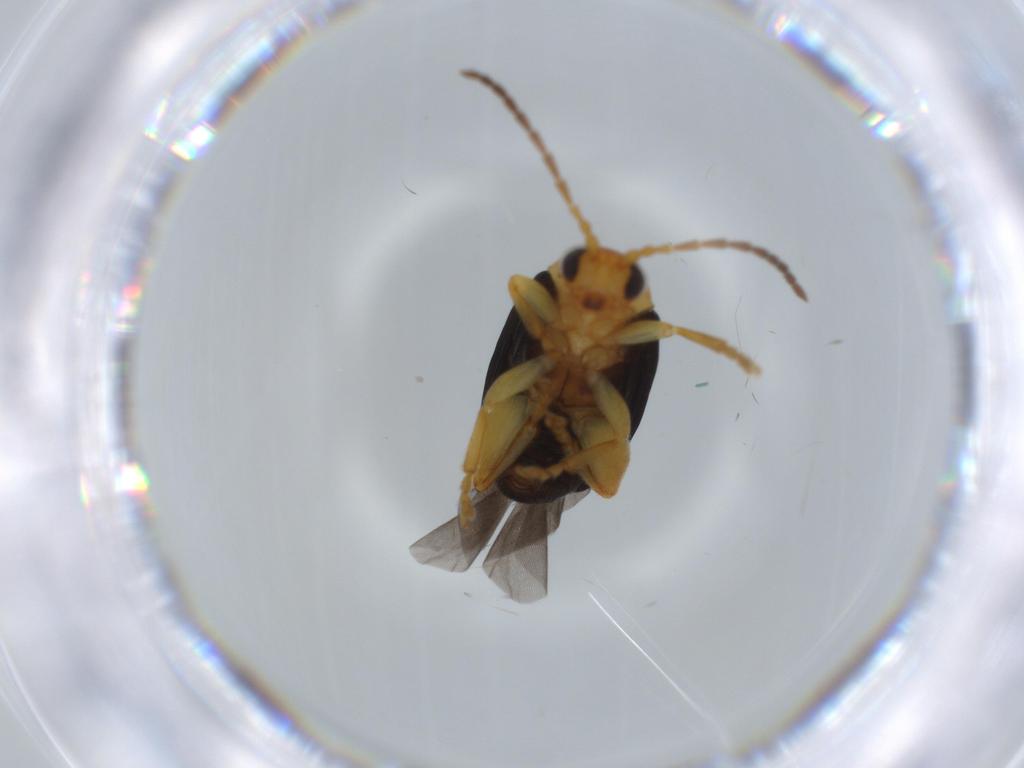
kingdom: Animalia
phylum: Arthropoda
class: Insecta
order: Coleoptera
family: Chrysomelidae
